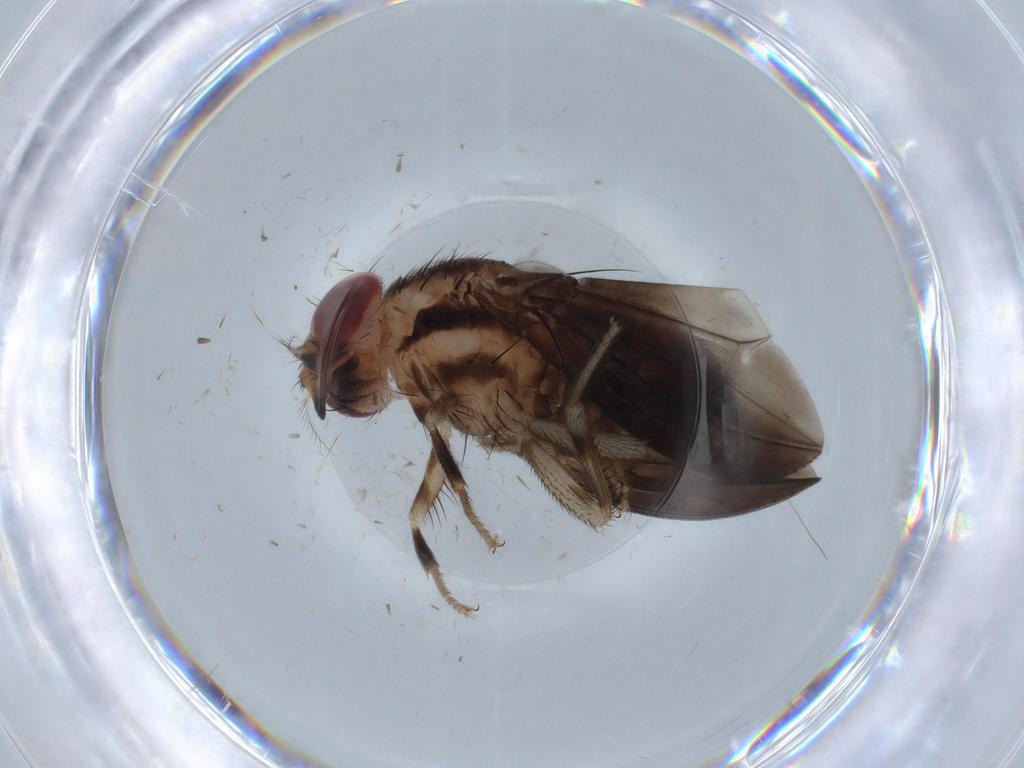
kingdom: Animalia
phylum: Arthropoda
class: Insecta
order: Diptera
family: Psychodidae
